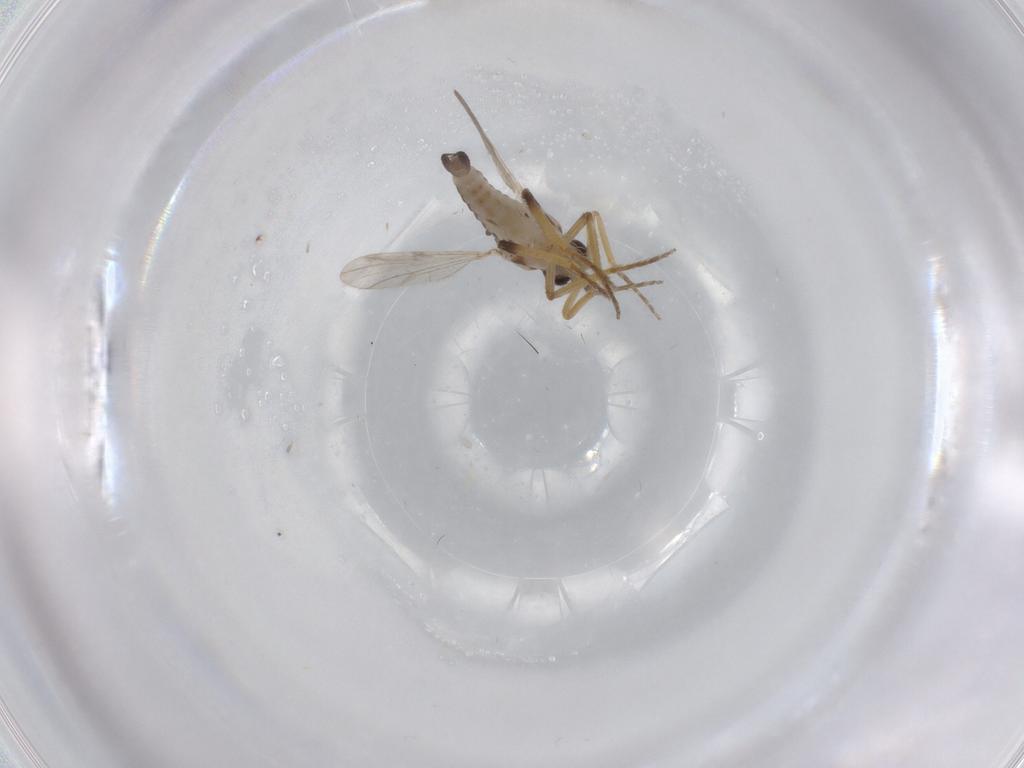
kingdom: Animalia
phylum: Arthropoda
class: Insecta
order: Diptera
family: Ceratopogonidae
